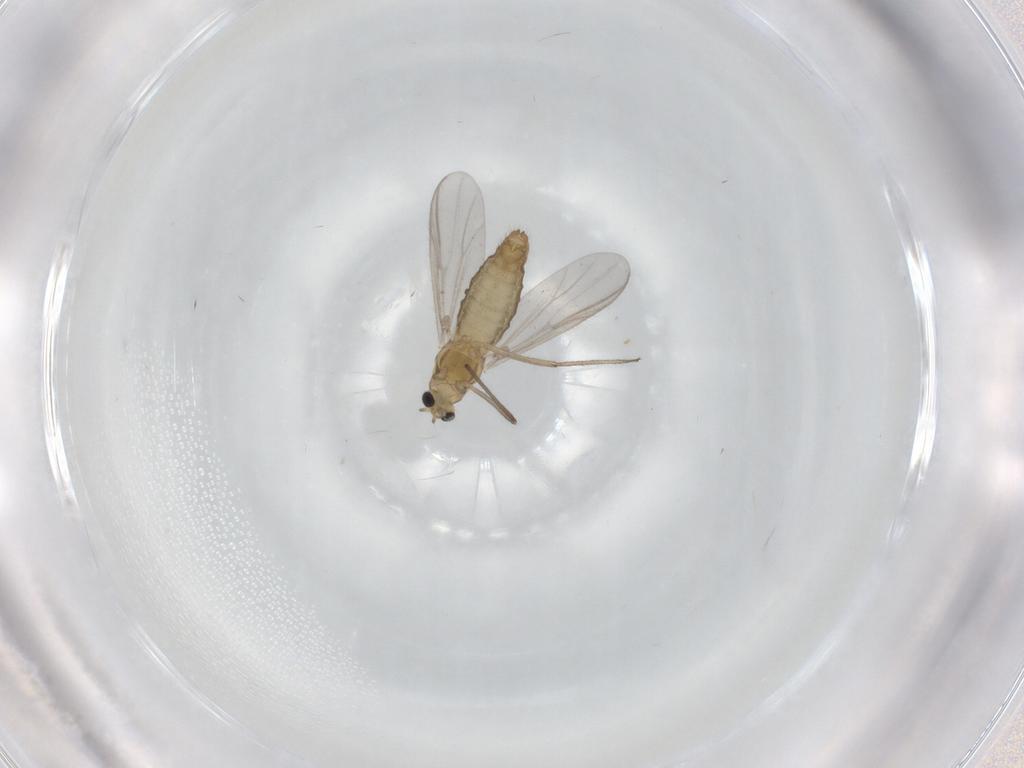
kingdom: Animalia
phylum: Arthropoda
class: Insecta
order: Diptera
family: Chironomidae
